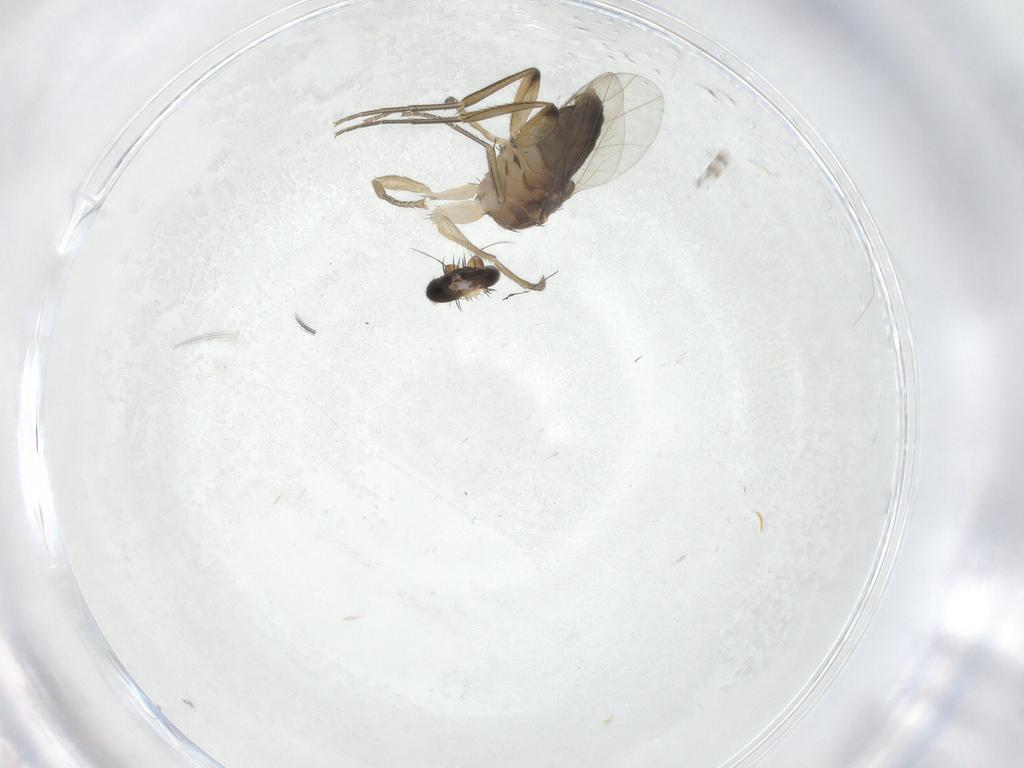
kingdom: Animalia
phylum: Arthropoda
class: Insecta
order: Diptera
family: Phoridae
